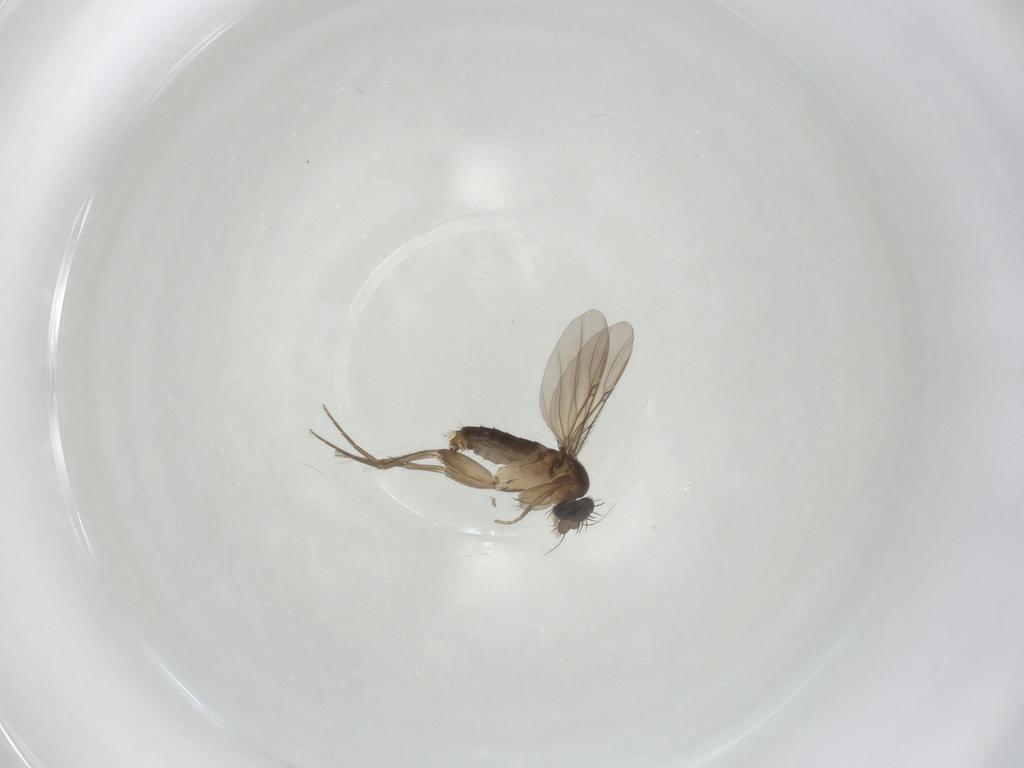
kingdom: Animalia
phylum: Arthropoda
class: Insecta
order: Diptera
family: Phoridae
